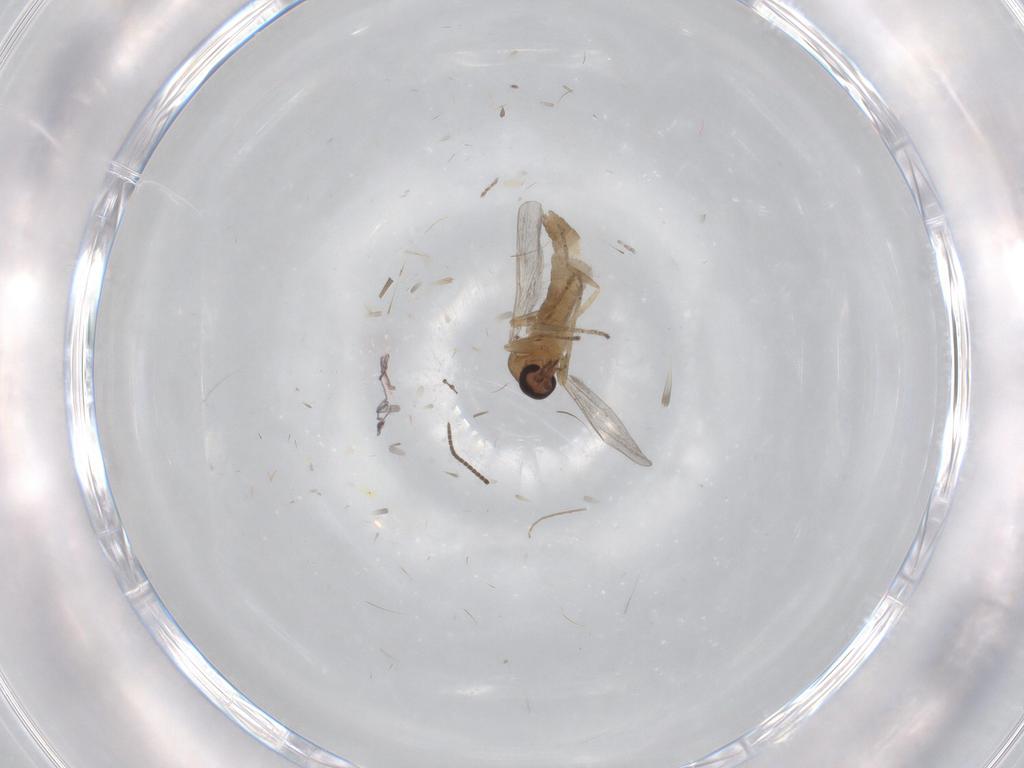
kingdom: Animalia
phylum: Arthropoda
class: Insecta
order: Diptera
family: Ceratopogonidae
